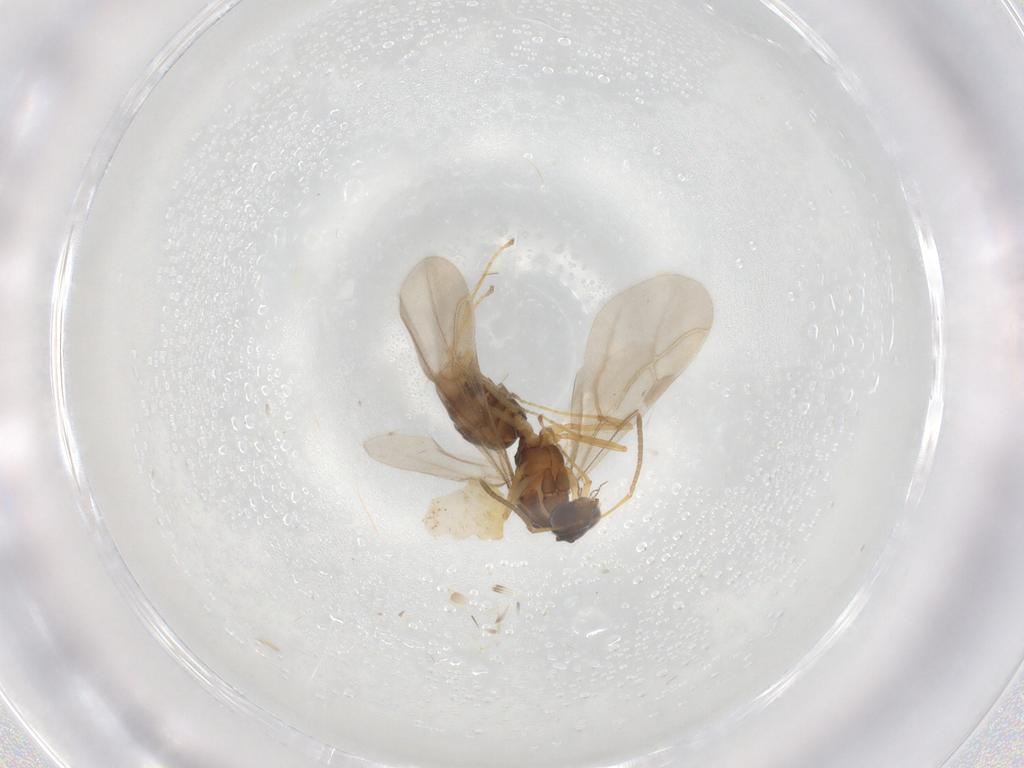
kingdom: Animalia
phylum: Arthropoda
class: Insecta
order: Hymenoptera
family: Formicidae
